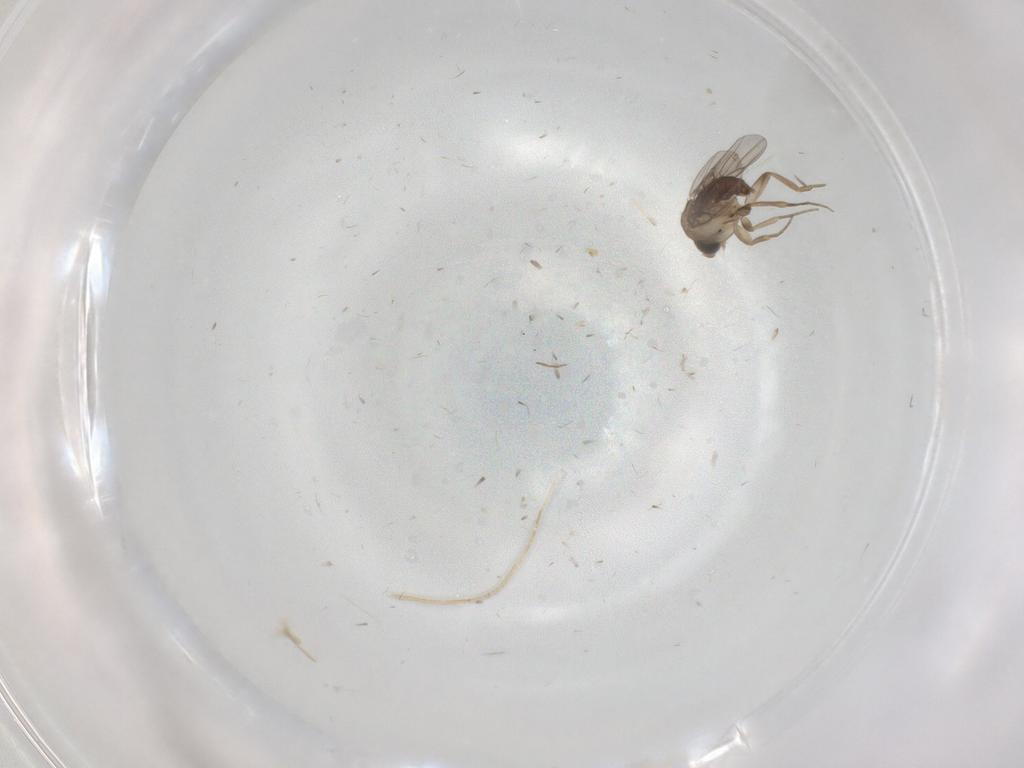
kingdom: Animalia
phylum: Arthropoda
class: Insecta
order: Diptera
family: Phoridae
